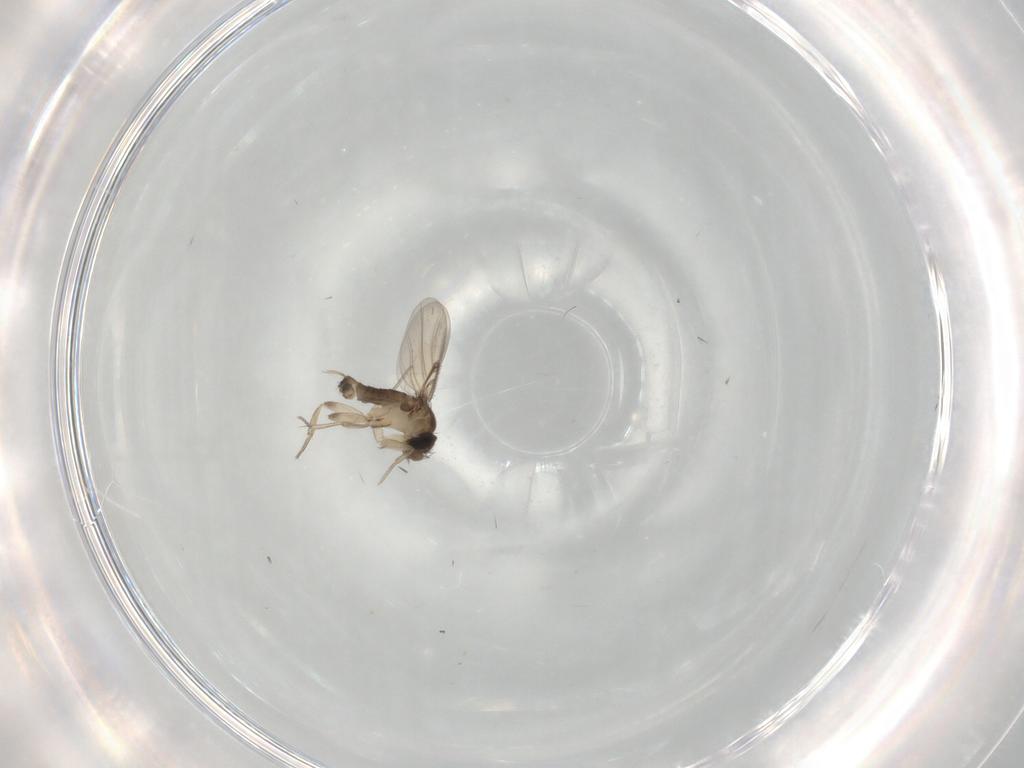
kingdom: Animalia
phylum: Arthropoda
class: Insecta
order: Diptera
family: Phoridae
